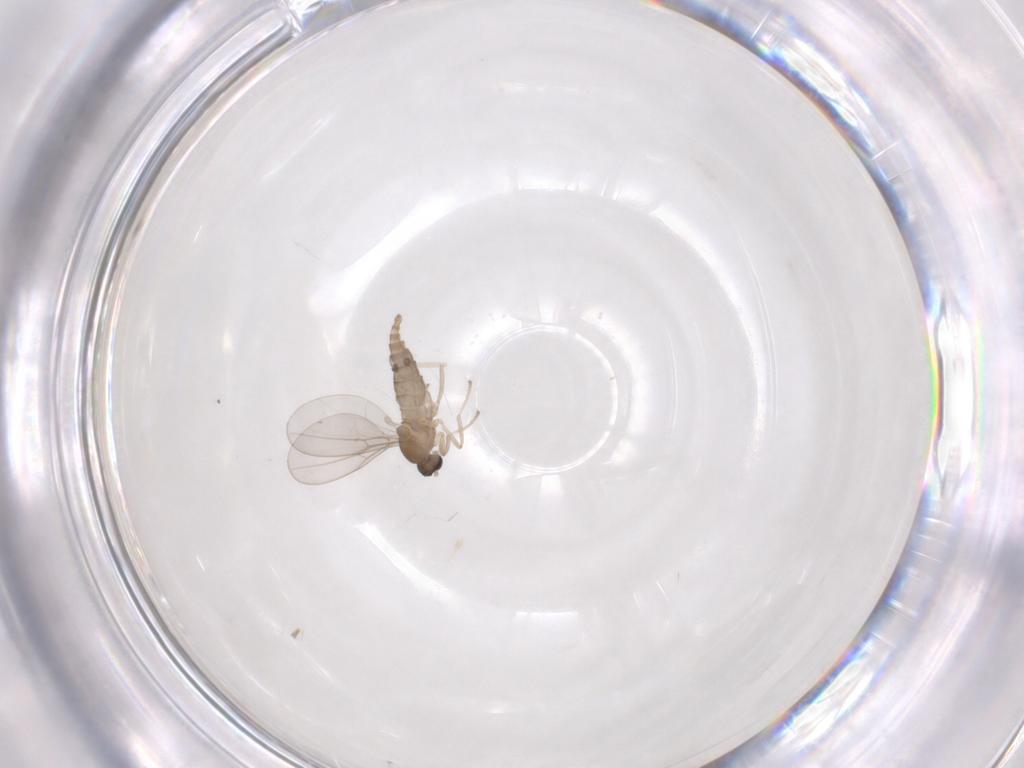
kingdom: Animalia
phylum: Arthropoda
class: Insecta
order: Diptera
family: Cecidomyiidae
